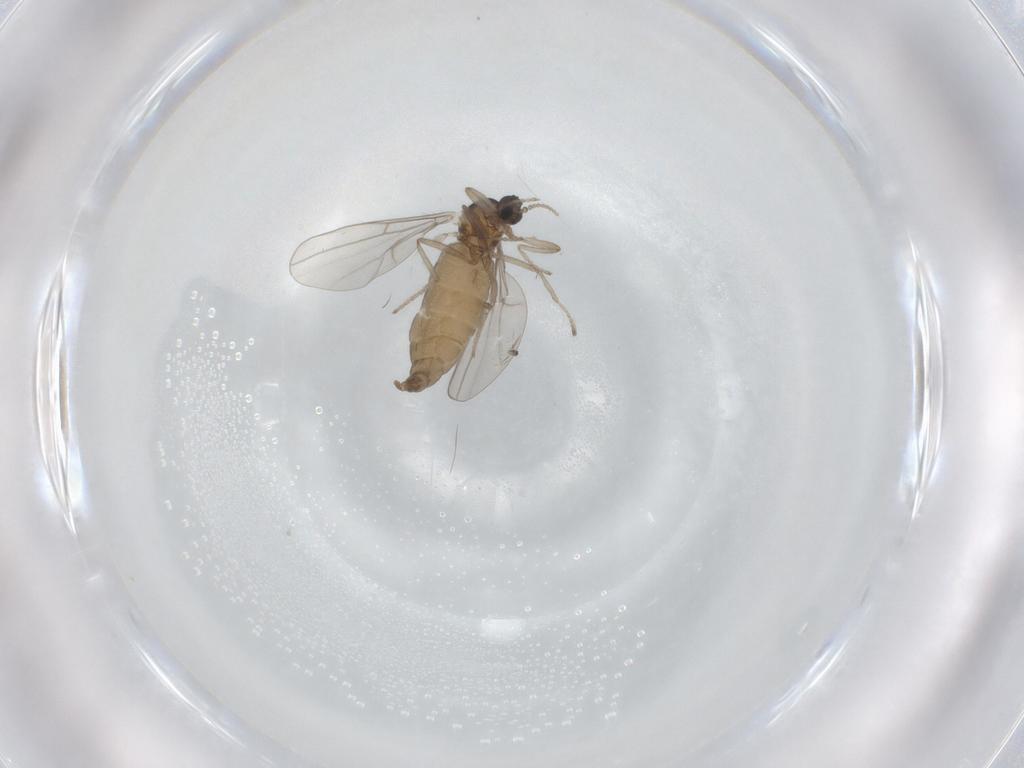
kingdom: Animalia
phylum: Arthropoda
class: Insecta
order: Diptera
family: Cecidomyiidae
